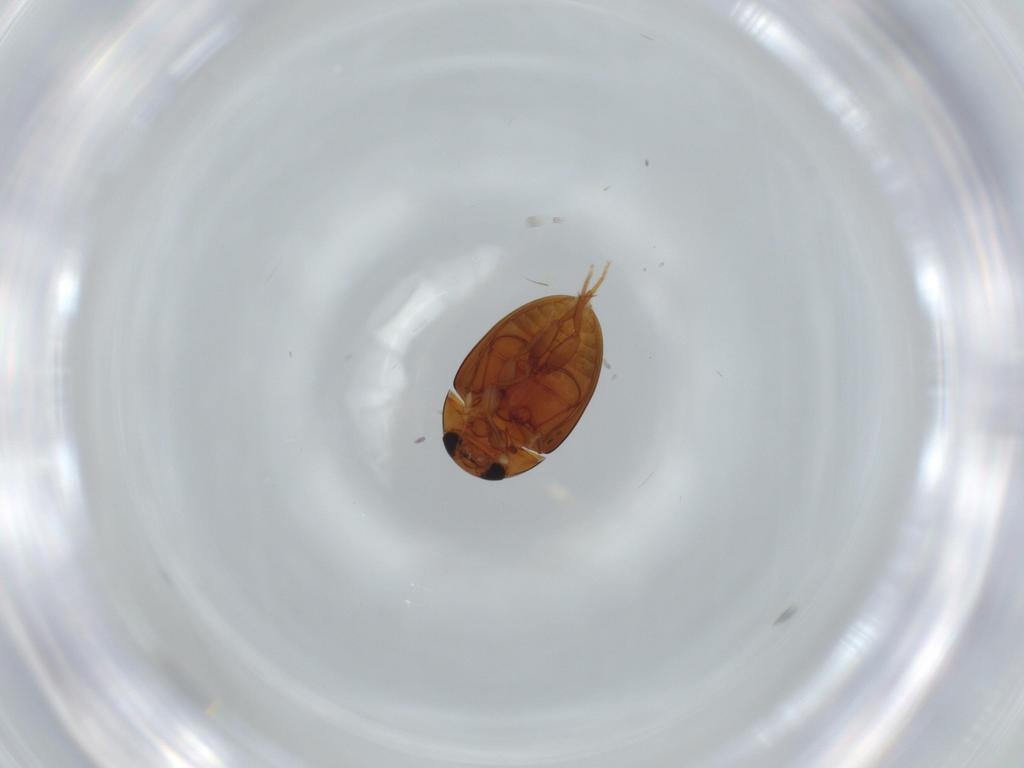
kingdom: Animalia
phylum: Arthropoda
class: Insecta
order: Coleoptera
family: Phalacridae
